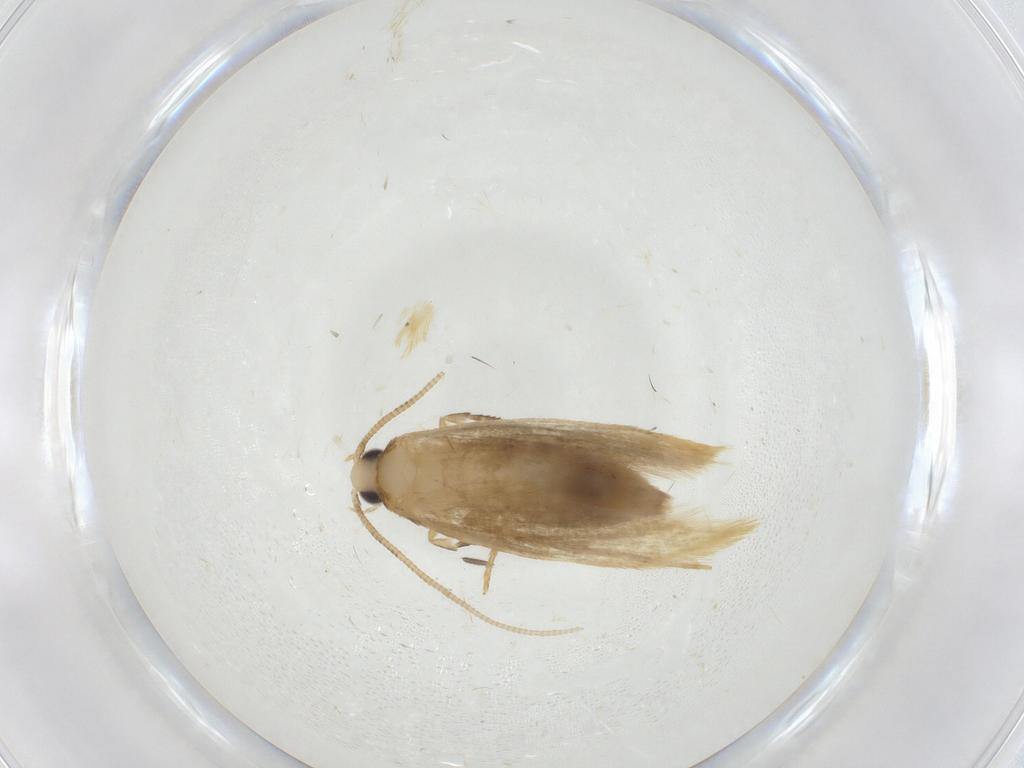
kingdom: Animalia
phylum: Arthropoda
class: Insecta
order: Lepidoptera
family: Tineidae
